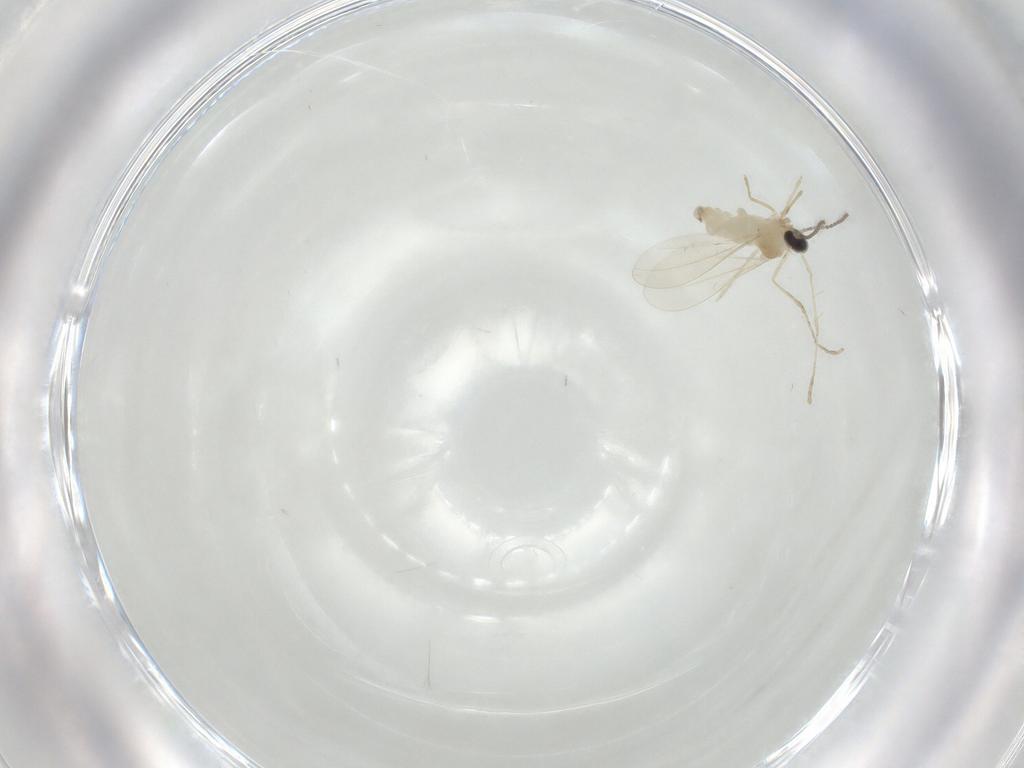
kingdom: Animalia
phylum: Arthropoda
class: Insecta
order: Diptera
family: Cecidomyiidae
